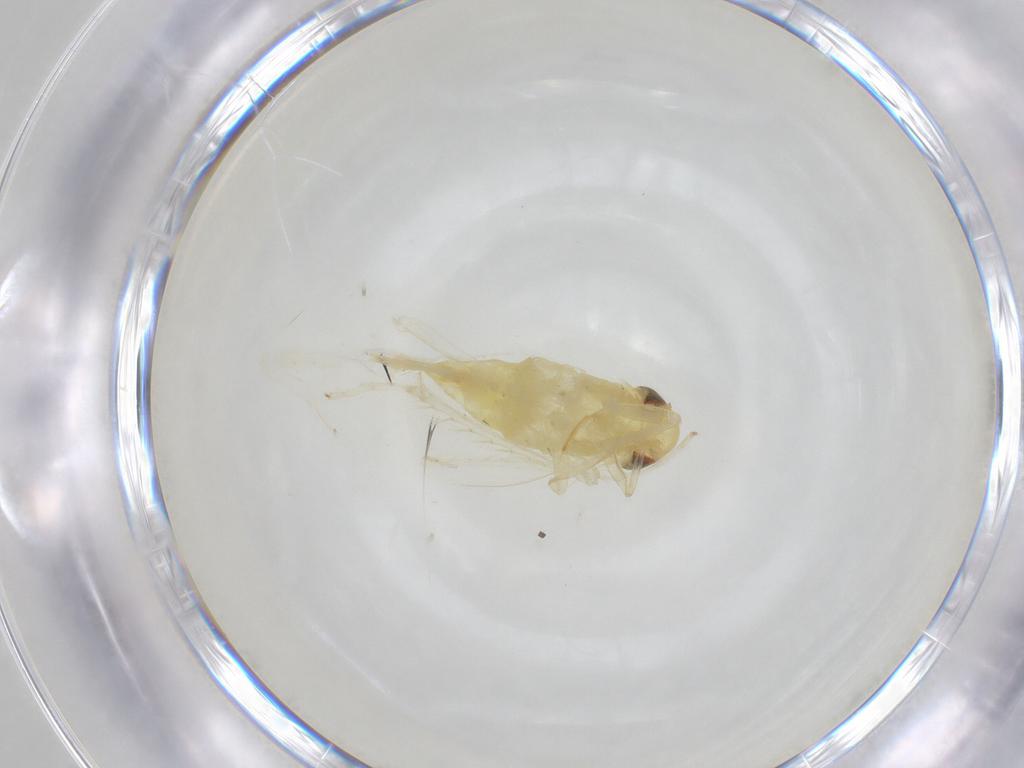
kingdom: Animalia
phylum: Arthropoda
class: Insecta
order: Hemiptera
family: Cicadellidae
